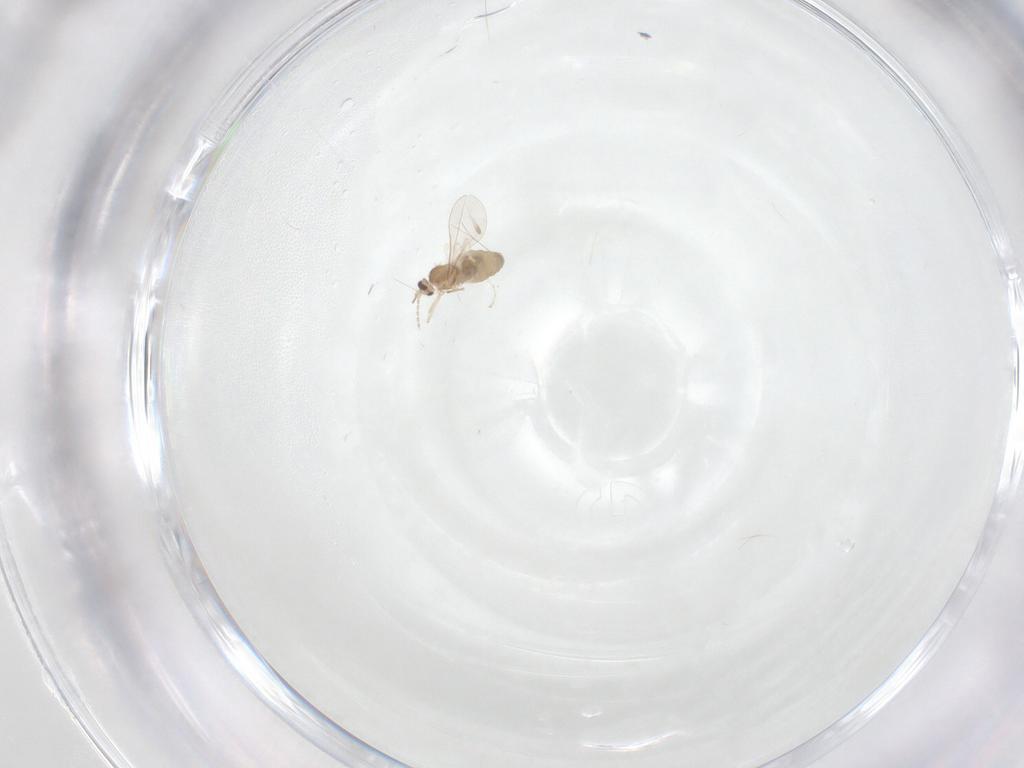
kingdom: Animalia
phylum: Arthropoda
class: Insecta
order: Diptera
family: Cecidomyiidae
